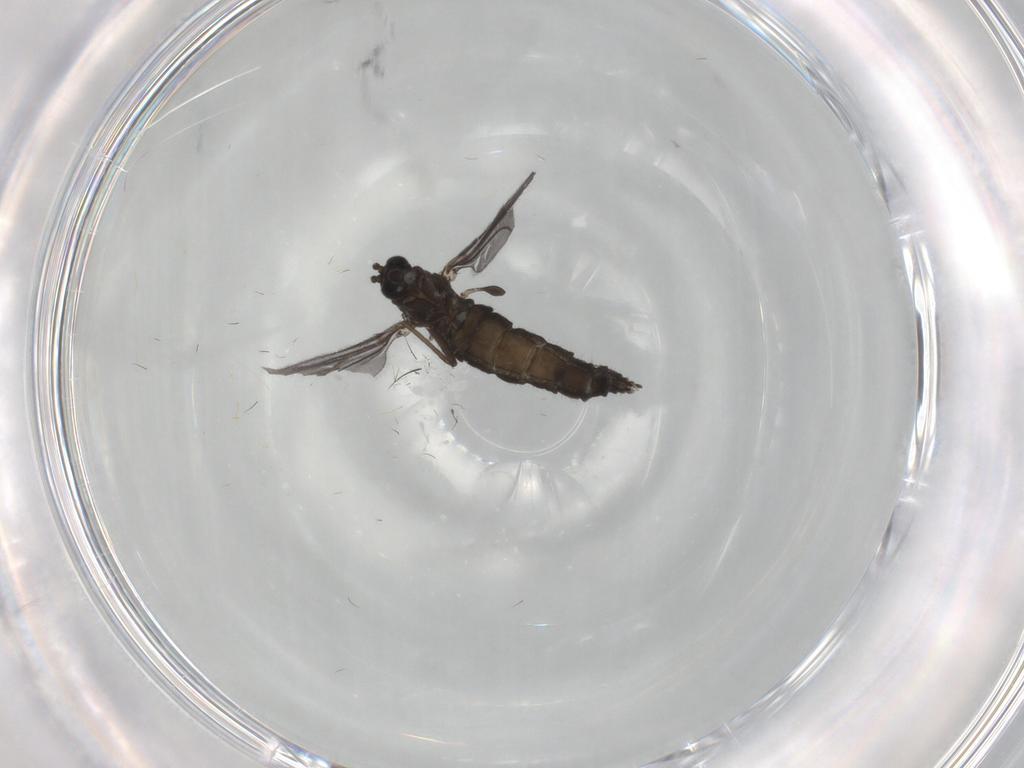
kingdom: Animalia
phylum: Arthropoda
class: Insecta
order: Diptera
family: Sciaridae
